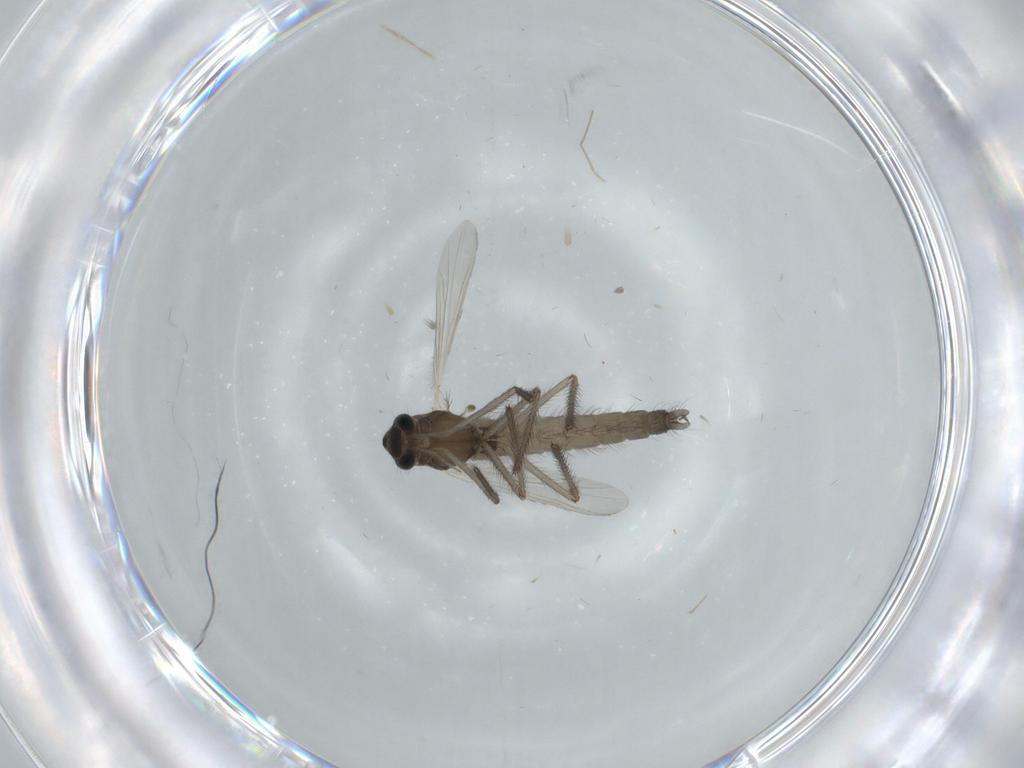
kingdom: Animalia
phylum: Arthropoda
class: Insecta
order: Diptera
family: Chironomidae
